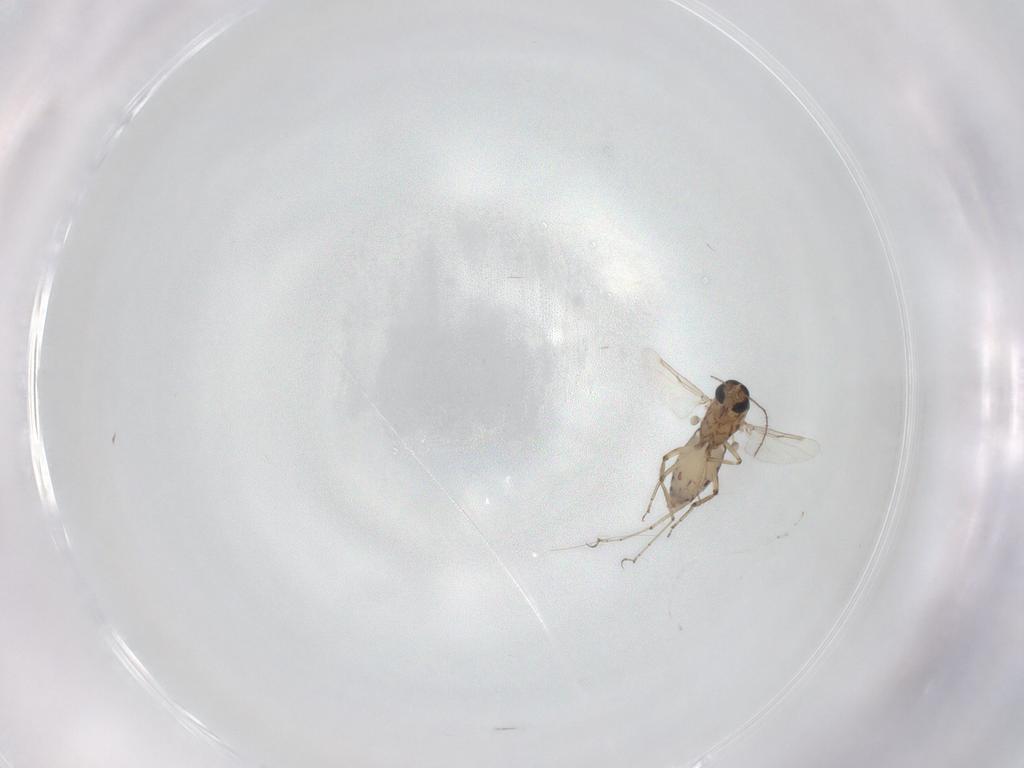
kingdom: Animalia
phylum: Arthropoda
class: Insecta
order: Diptera
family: Ceratopogonidae
